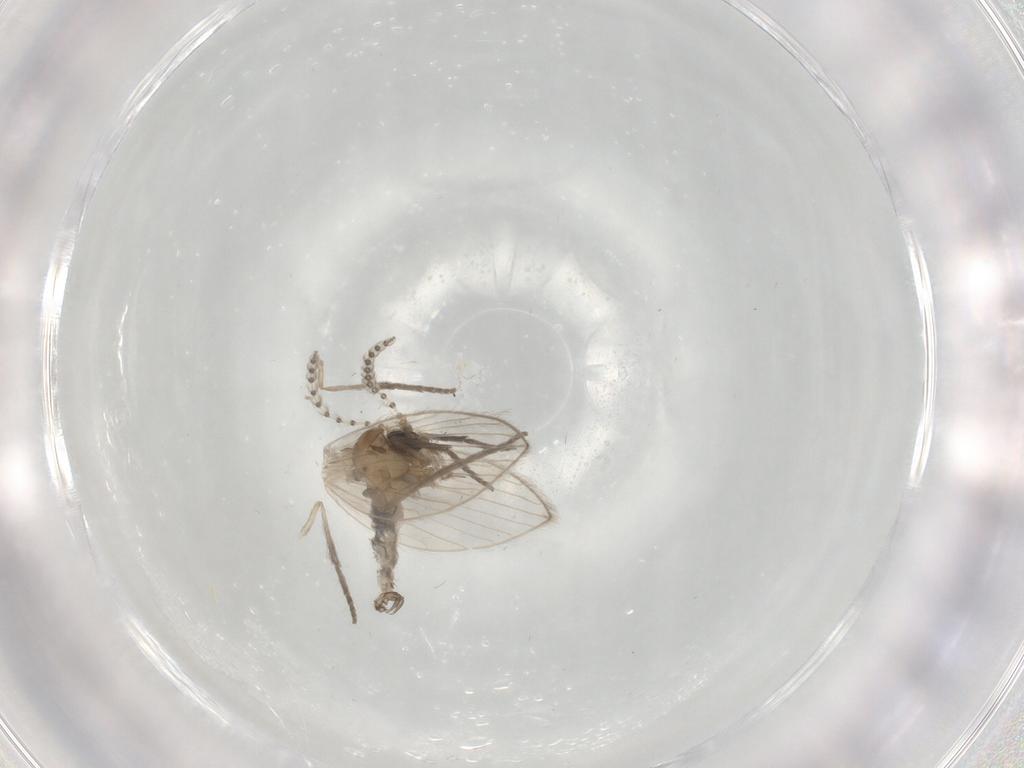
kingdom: Animalia
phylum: Arthropoda
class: Insecta
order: Diptera
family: Psychodidae
